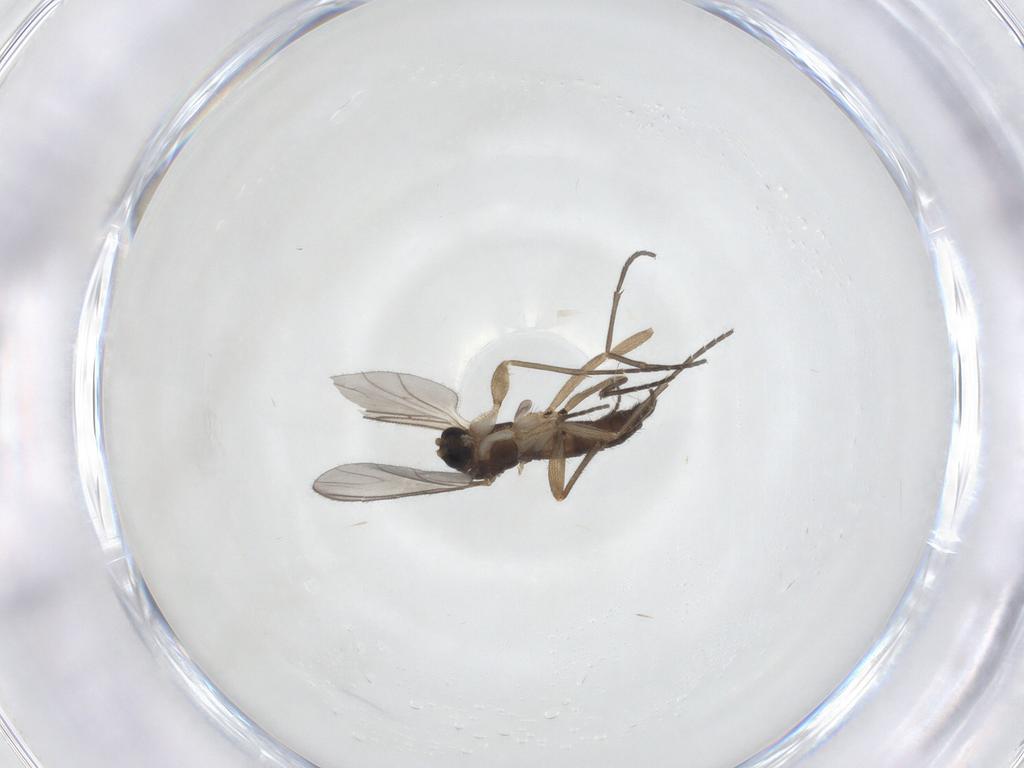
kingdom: Animalia
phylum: Arthropoda
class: Insecta
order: Diptera
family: Sciaridae
